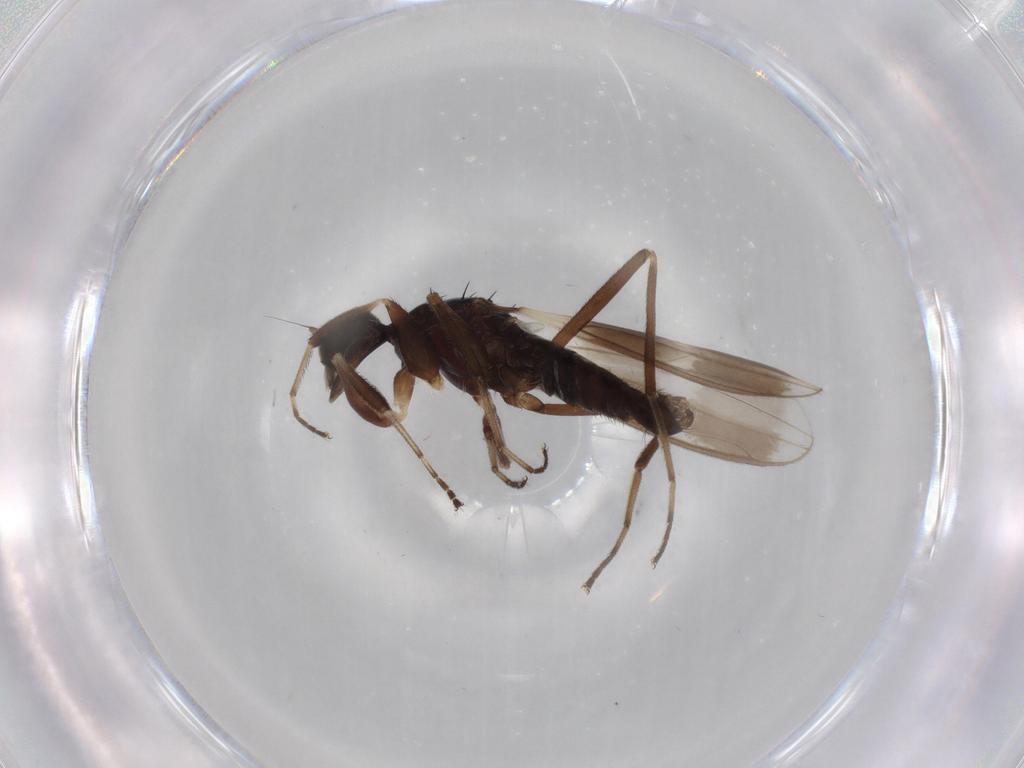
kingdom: Animalia
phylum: Arthropoda
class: Insecta
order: Diptera
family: Hybotidae
